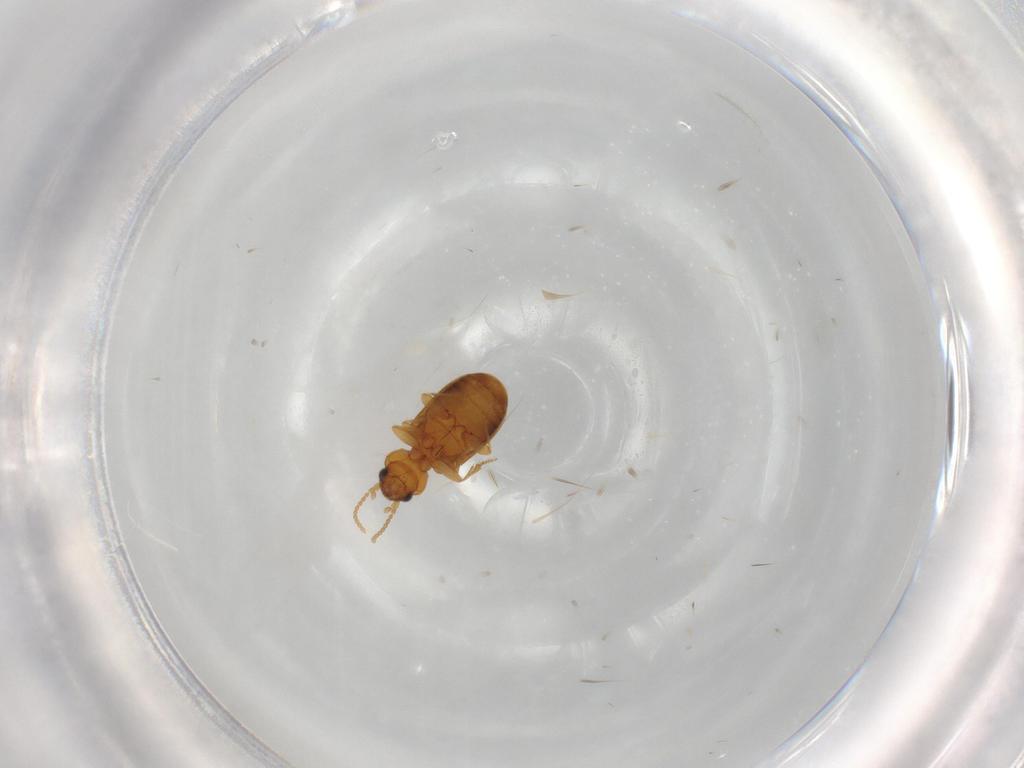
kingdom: Animalia
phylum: Arthropoda
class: Insecta
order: Coleoptera
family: Carabidae
